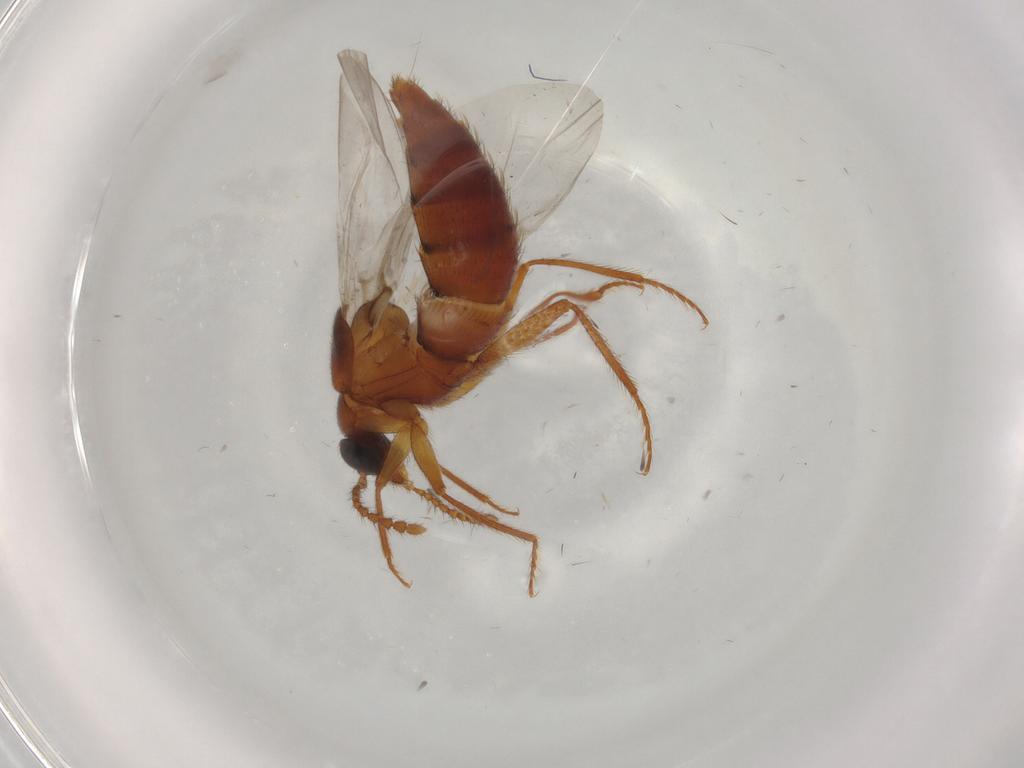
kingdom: Animalia
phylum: Arthropoda
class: Insecta
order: Coleoptera
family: Staphylinidae
